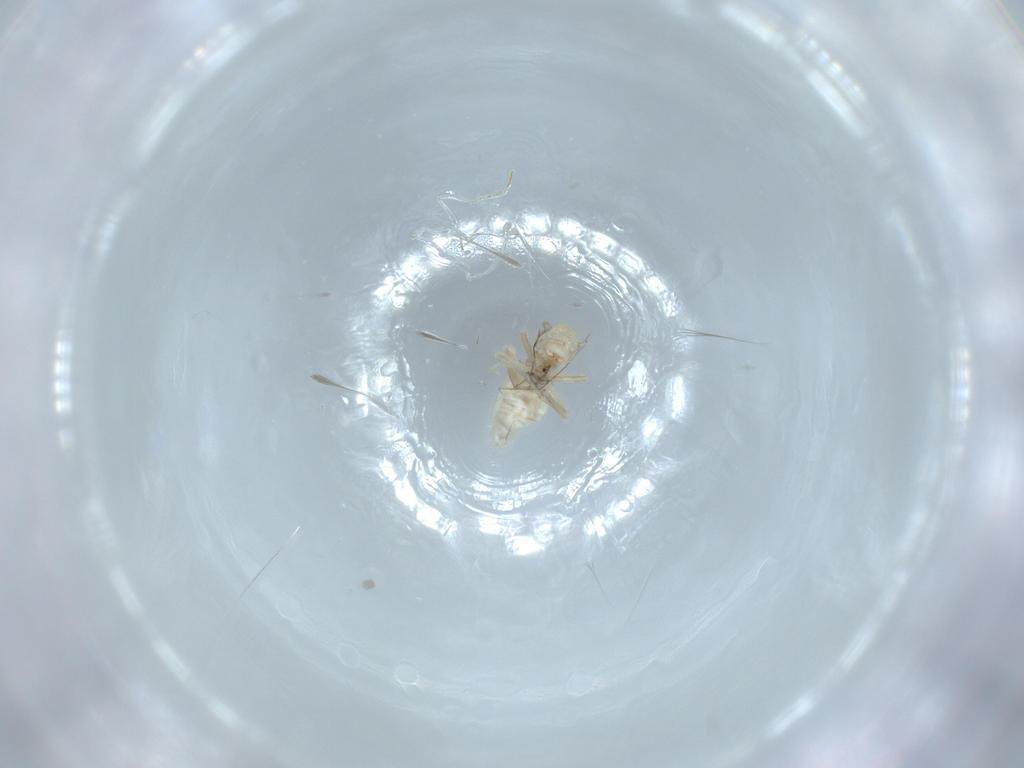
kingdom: Animalia
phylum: Arthropoda
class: Insecta
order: Psocodea
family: Caeciliusidae
